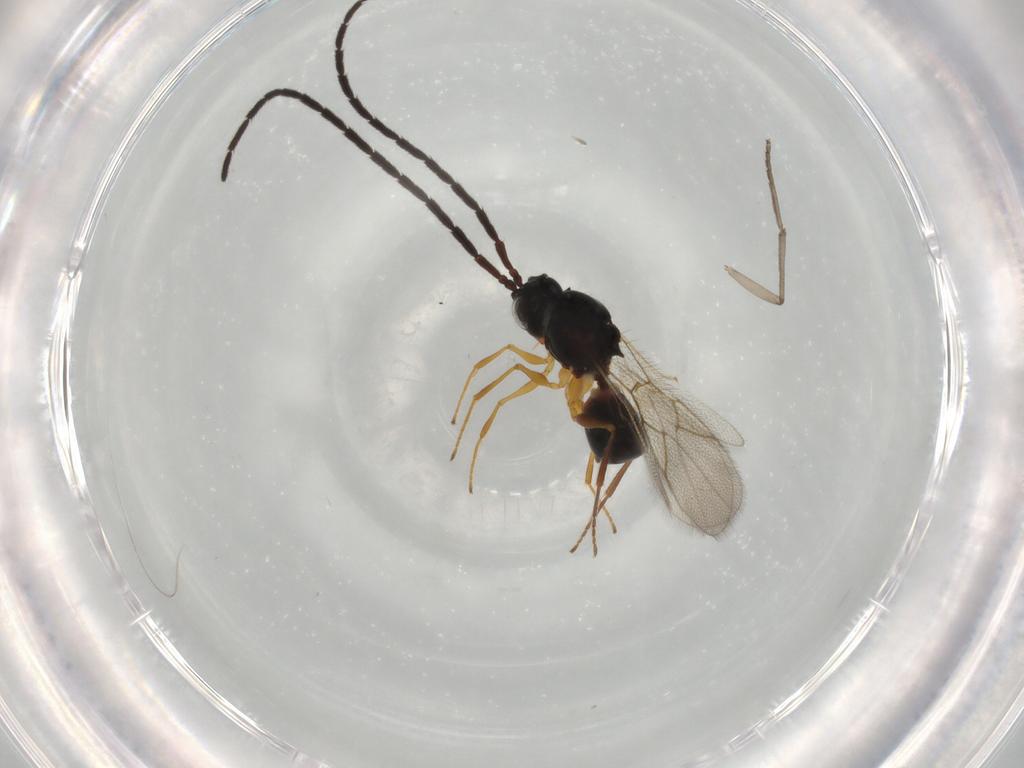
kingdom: Animalia
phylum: Arthropoda
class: Insecta
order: Hymenoptera
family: Figitidae
